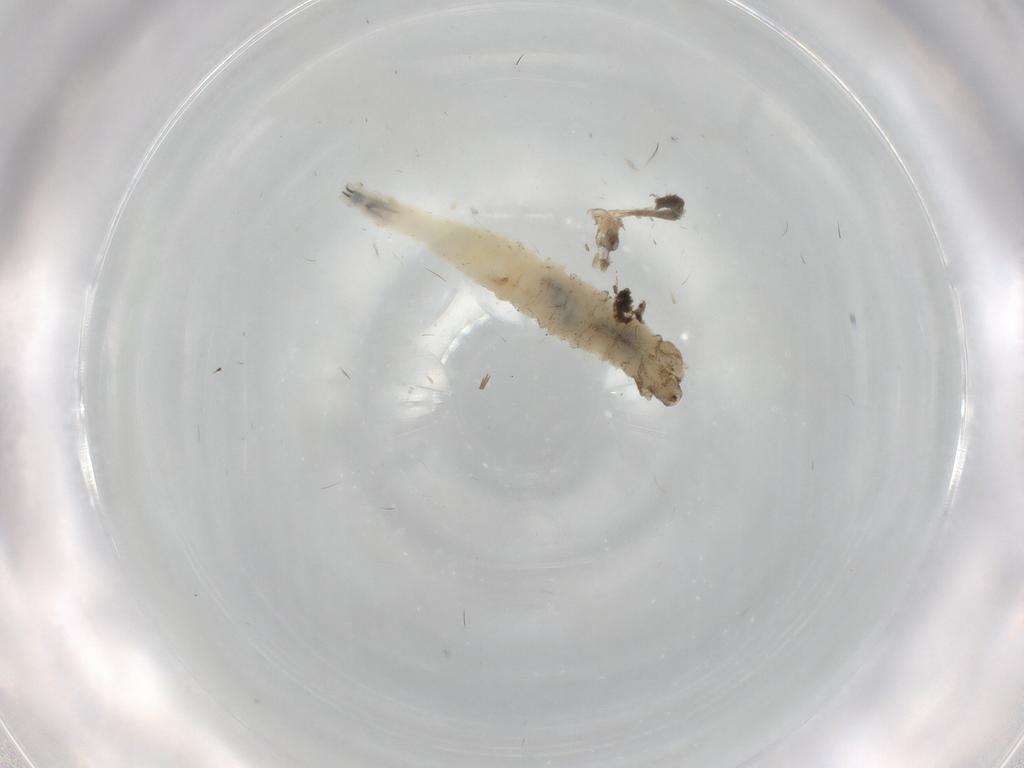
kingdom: Animalia
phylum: Arthropoda
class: Insecta
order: Diptera
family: Cecidomyiidae
